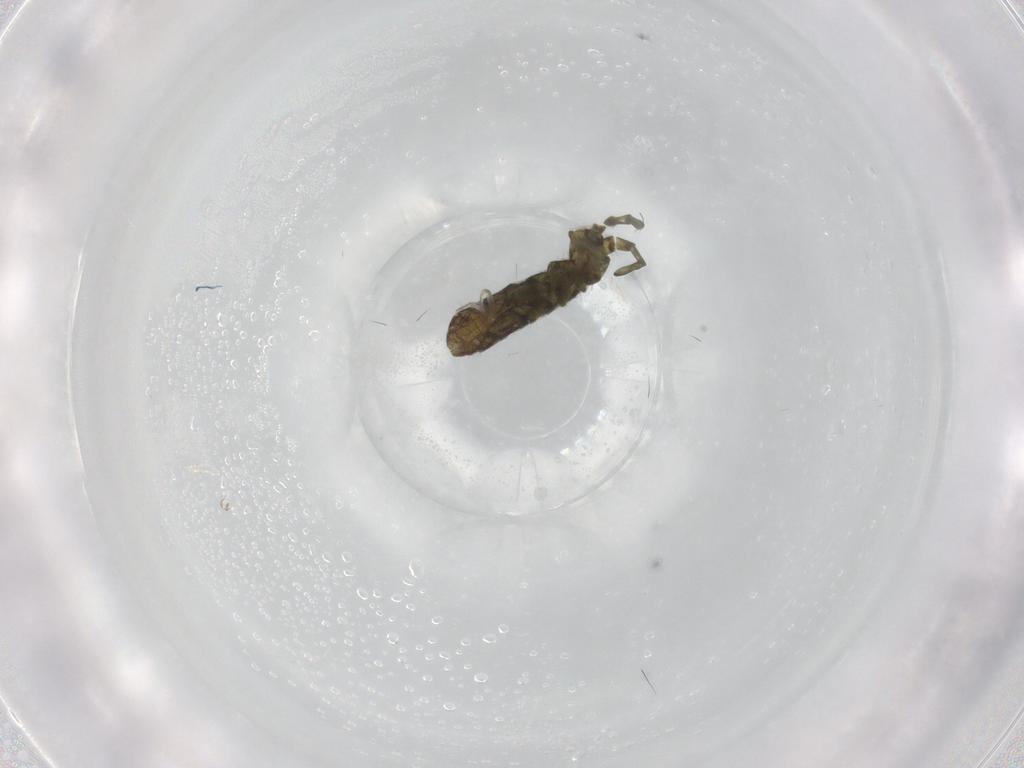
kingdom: Animalia
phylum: Arthropoda
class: Collembola
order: Entomobryomorpha
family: Isotomidae
